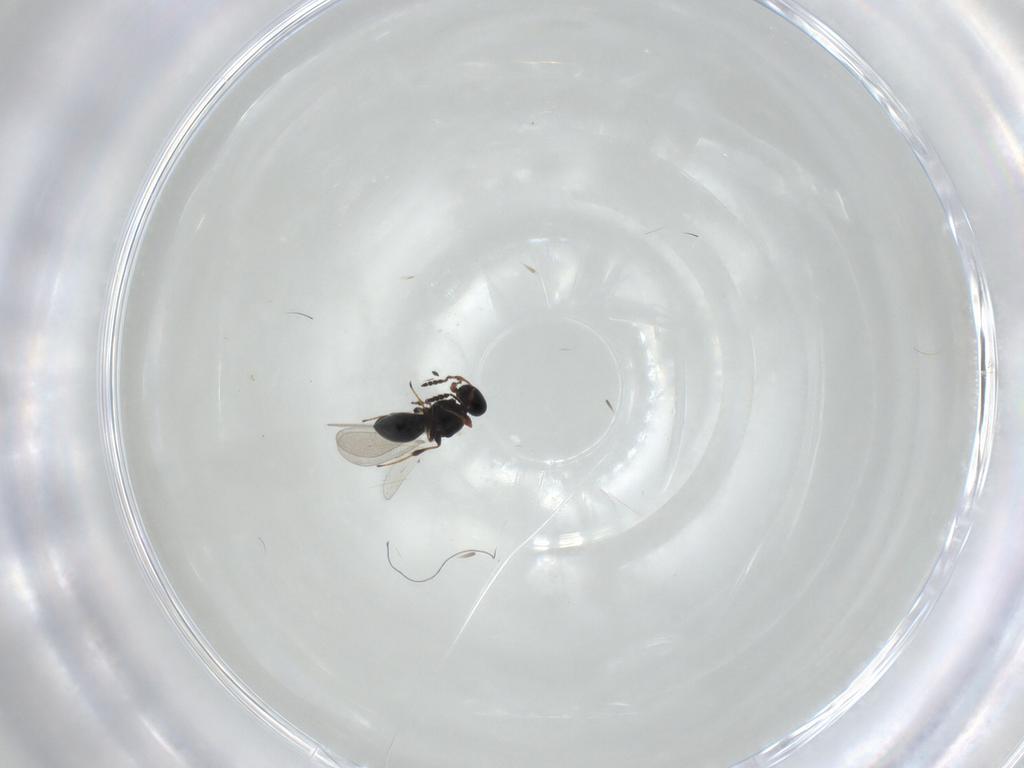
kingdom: Animalia
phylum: Arthropoda
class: Insecta
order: Hymenoptera
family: Platygastridae
